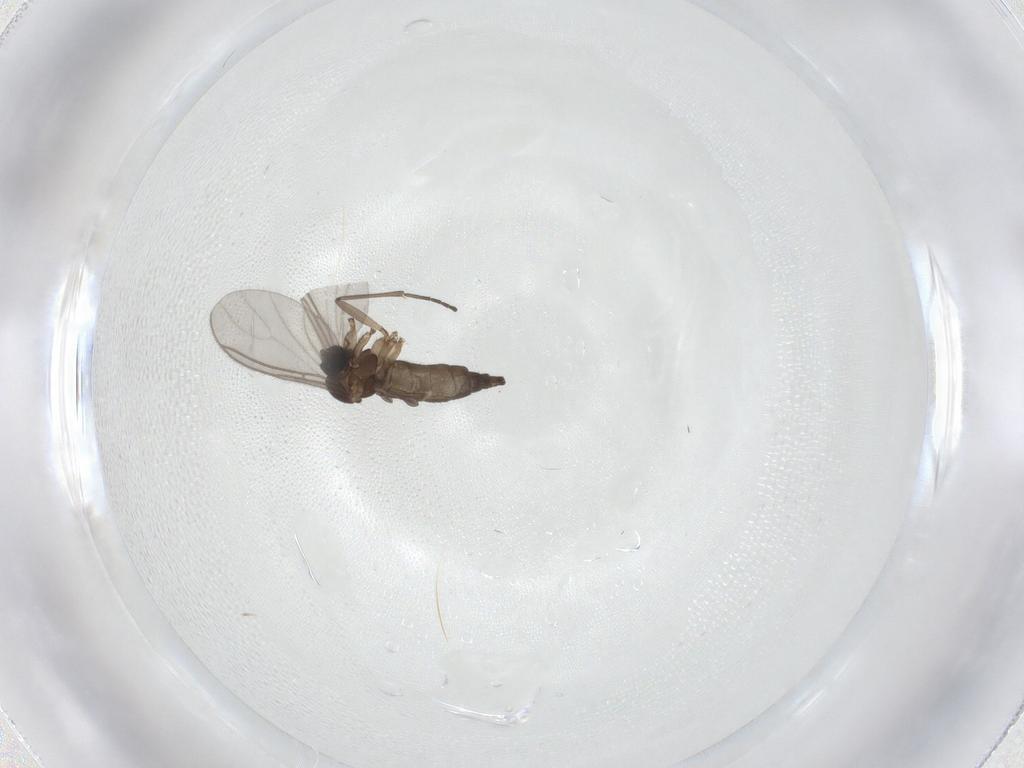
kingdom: Animalia
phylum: Arthropoda
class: Insecta
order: Diptera
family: Sciaridae
